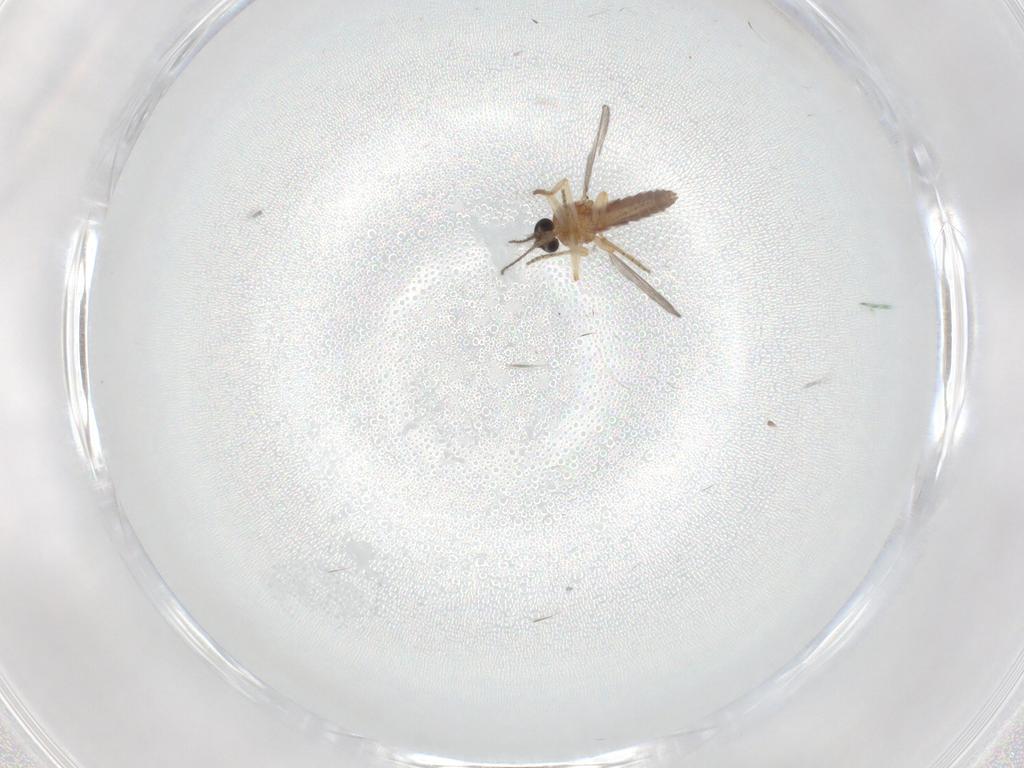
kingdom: Animalia
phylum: Arthropoda
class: Insecta
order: Diptera
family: Ceratopogonidae
